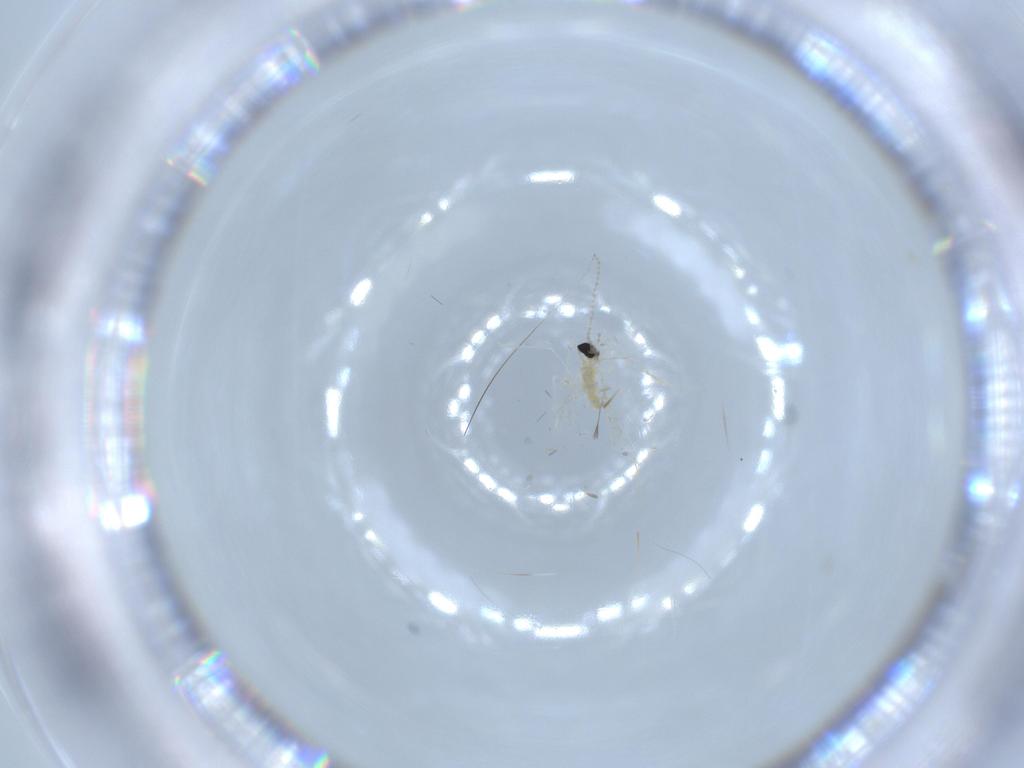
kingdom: Animalia
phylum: Arthropoda
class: Insecta
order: Diptera
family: Cecidomyiidae
